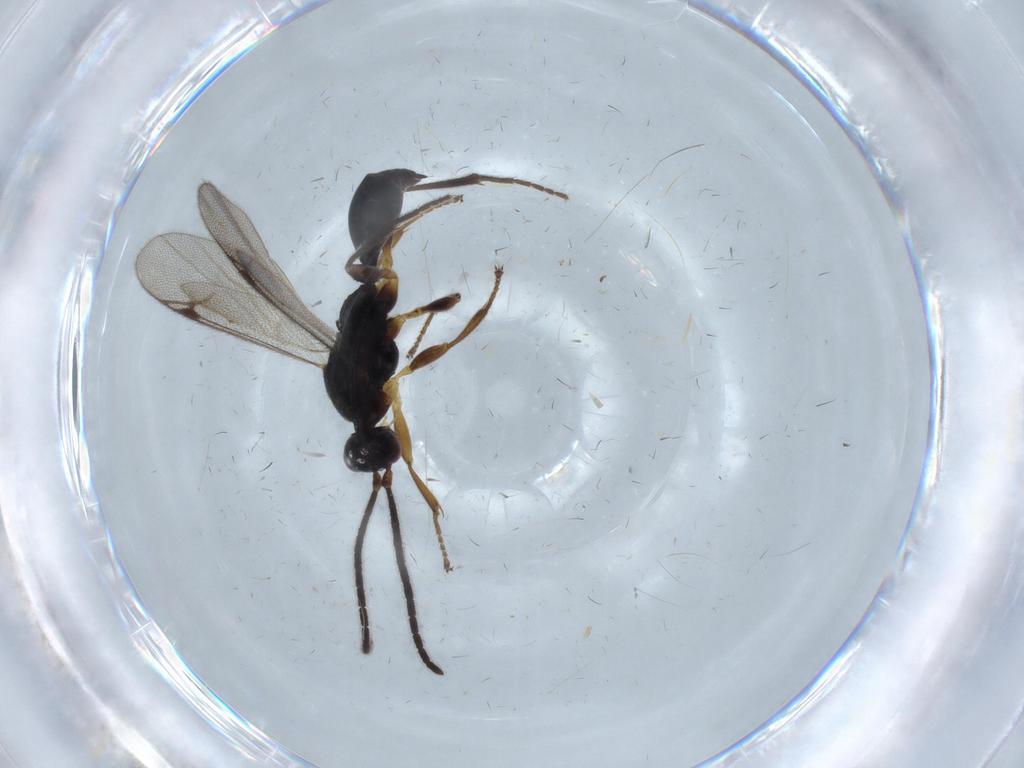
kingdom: Animalia
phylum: Arthropoda
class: Insecta
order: Hymenoptera
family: Proctotrupidae
